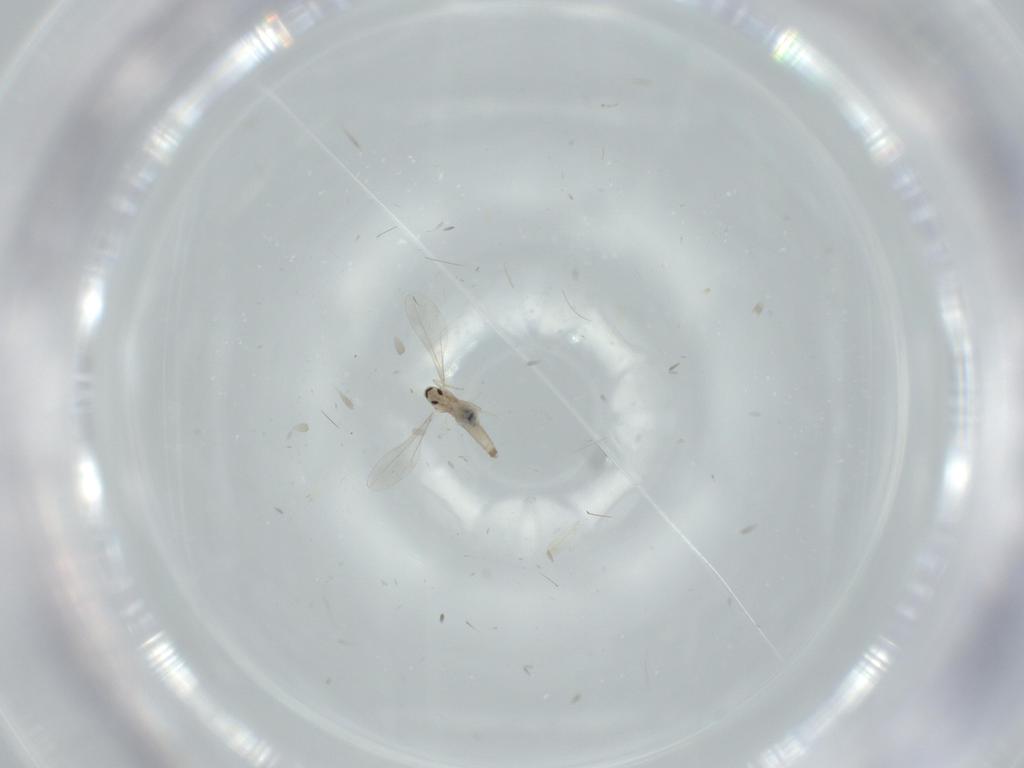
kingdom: Animalia
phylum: Arthropoda
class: Insecta
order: Diptera
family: Cecidomyiidae
